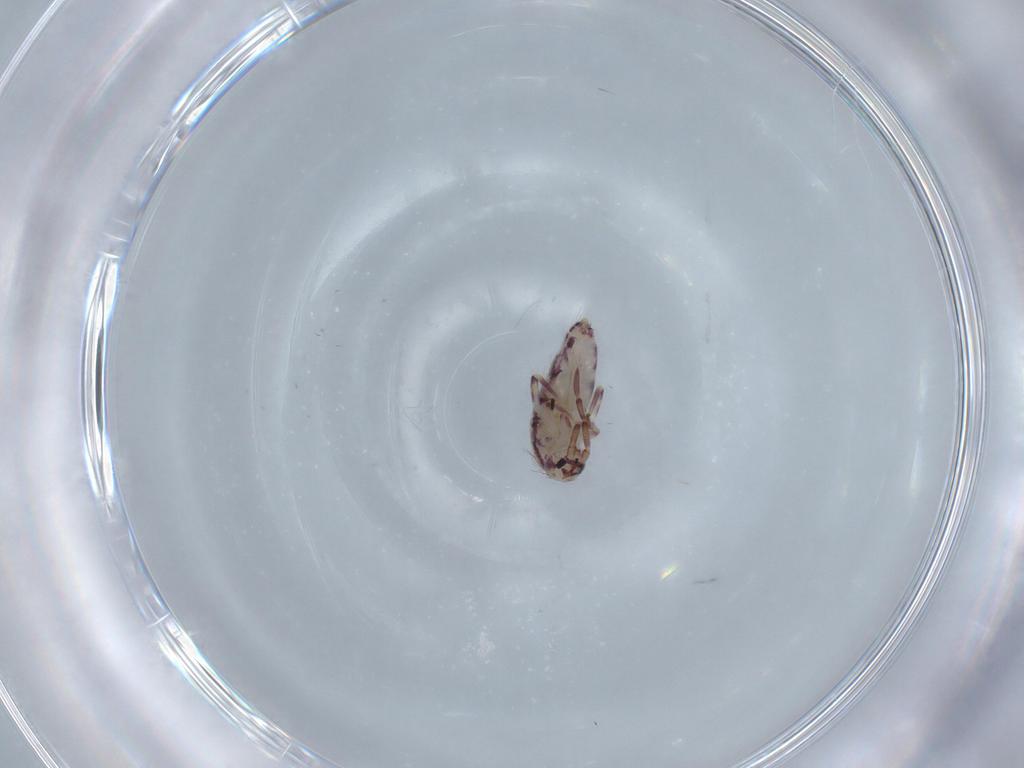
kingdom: Animalia
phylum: Arthropoda
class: Collembola
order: Entomobryomorpha
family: Entomobryidae
